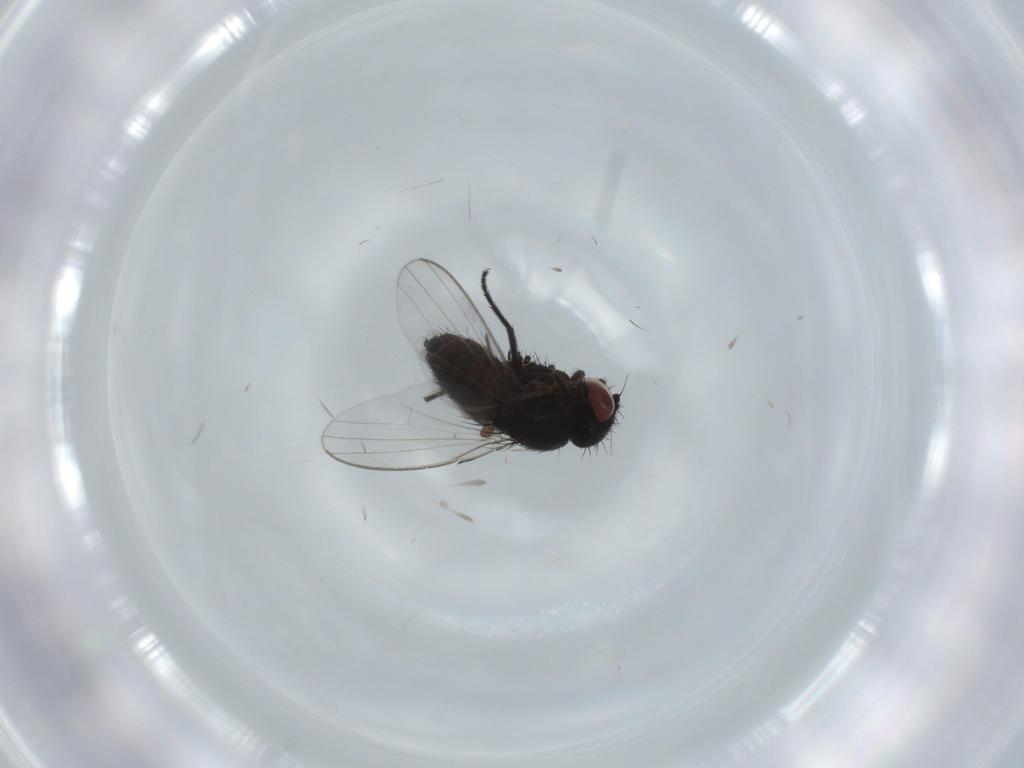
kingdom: Animalia
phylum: Arthropoda
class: Insecta
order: Diptera
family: Milichiidae
